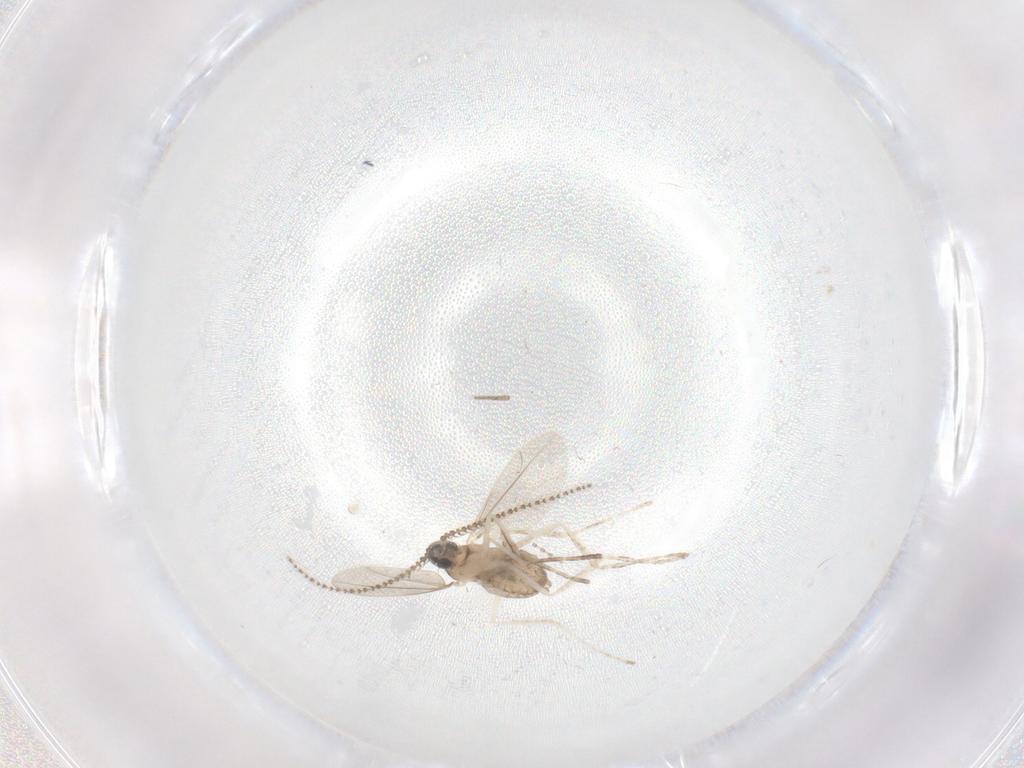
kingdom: Animalia
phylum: Arthropoda
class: Insecta
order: Diptera
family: Cecidomyiidae
